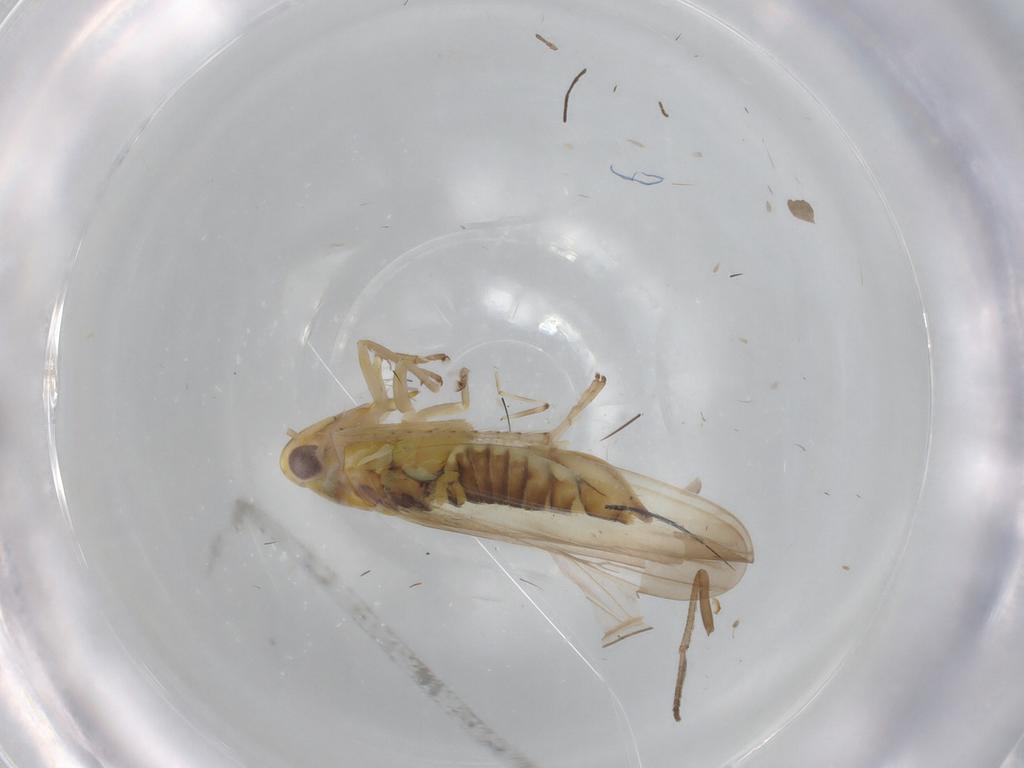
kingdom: Animalia
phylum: Arthropoda
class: Insecta
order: Hemiptera
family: Cicadellidae
